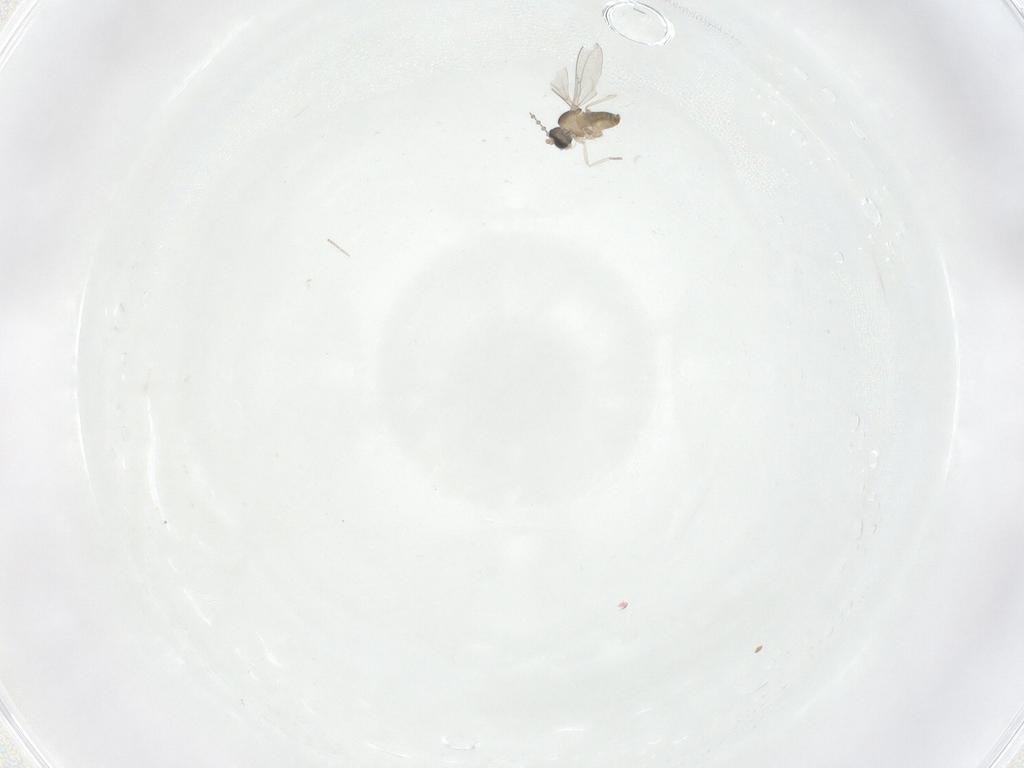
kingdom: Animalia
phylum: Arthropoda
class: Insecta
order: Diptera
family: Cecidomyiidae
